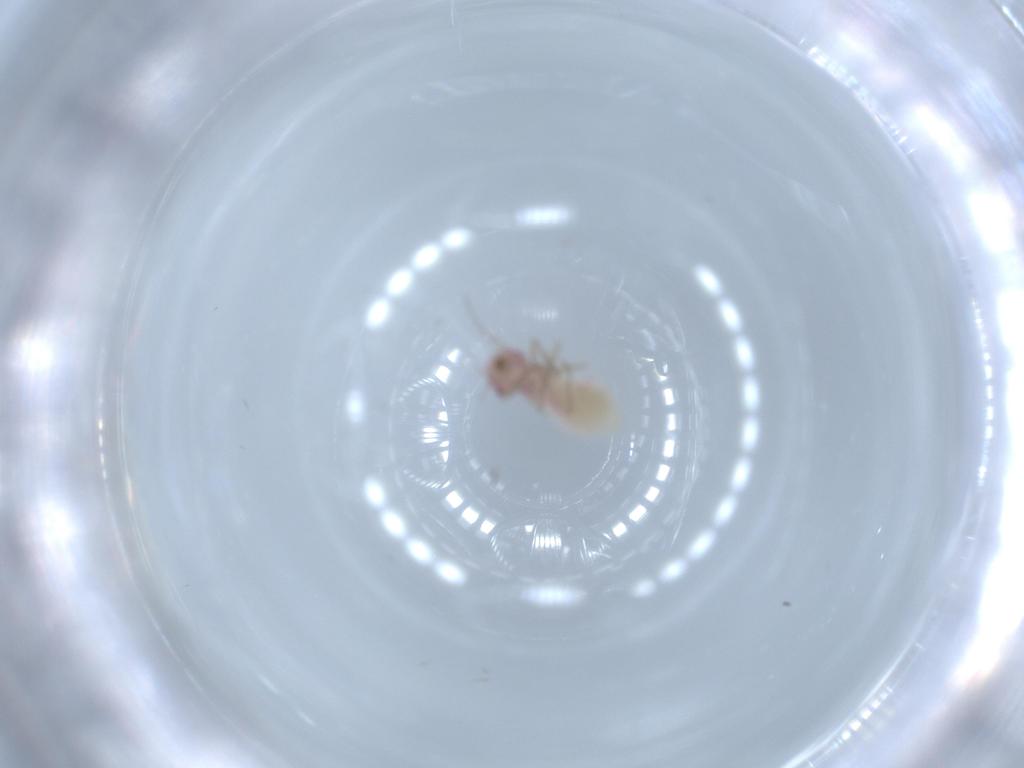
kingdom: Animalia
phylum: Arthropoda
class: Insecta
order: Psocodea
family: Asiopsocidae
